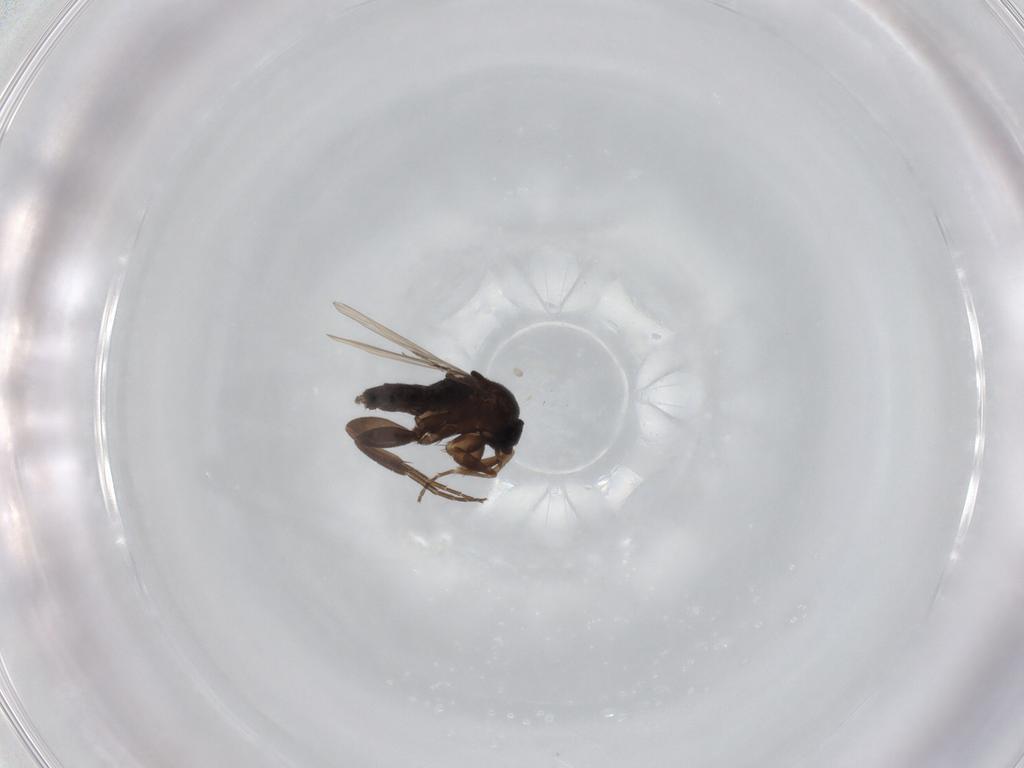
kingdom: Animalia
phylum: Arthropoda
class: Insecta
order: Diptera
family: Phoridae
